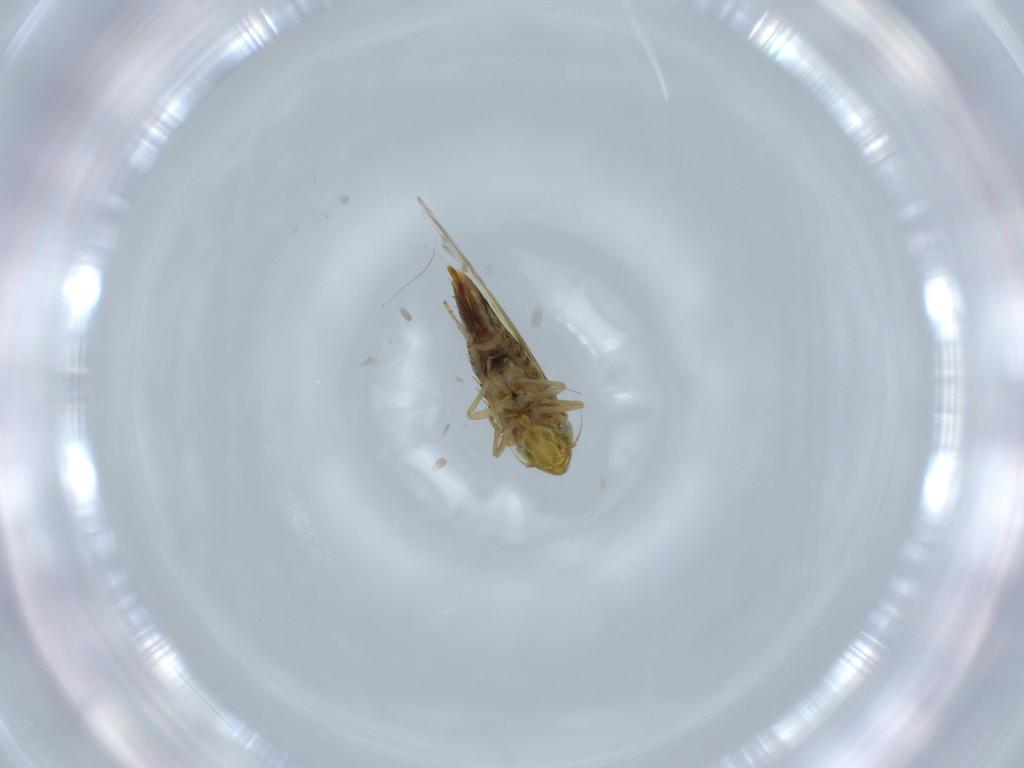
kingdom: Animalia
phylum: Arthropoda
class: Insecta
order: Hemiptera
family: Cicadellidae
